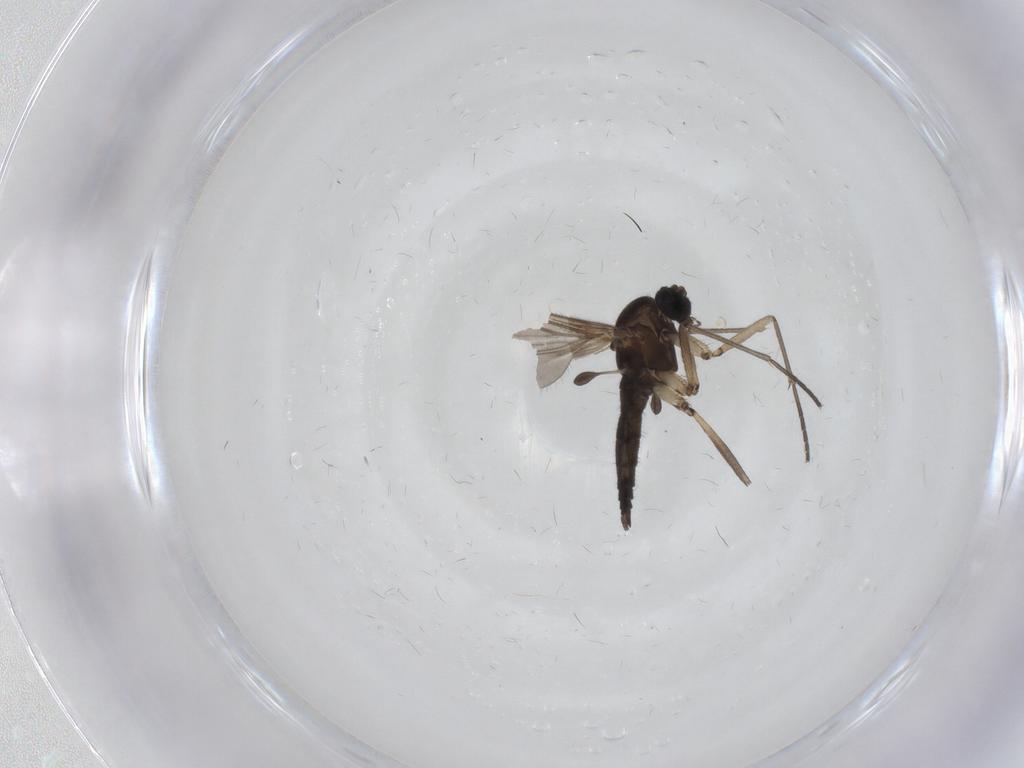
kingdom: Animalia
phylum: Arthropoda
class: Insecta
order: Diptera
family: Sciaridae
